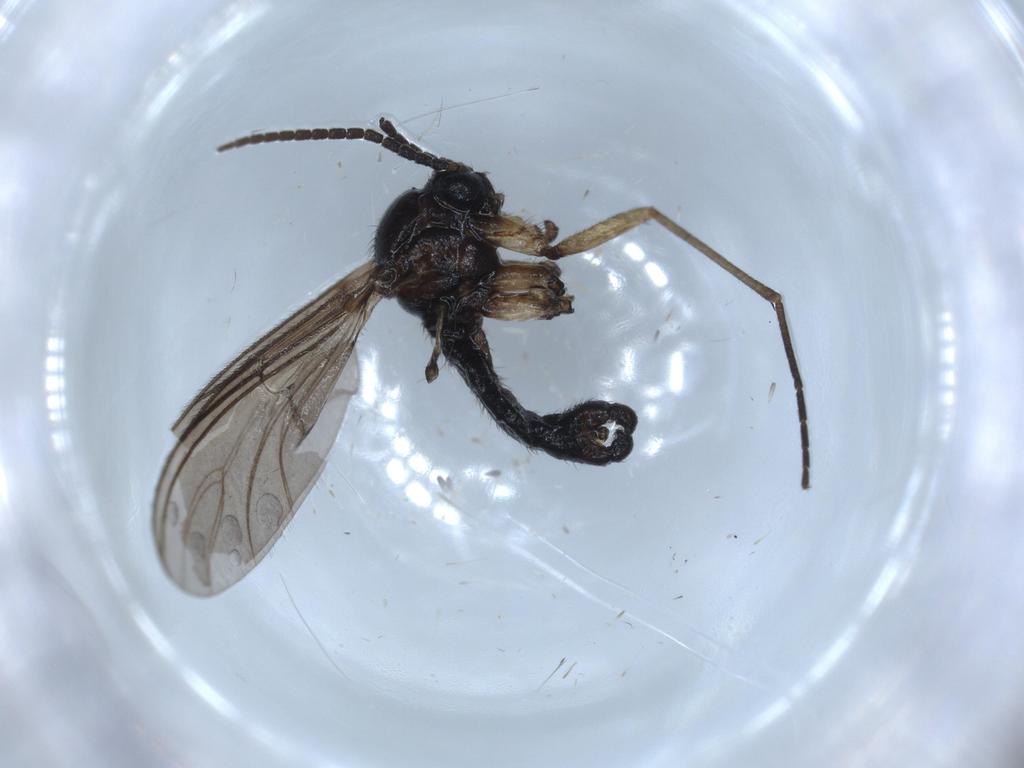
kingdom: Animalia
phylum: Arthropoda
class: Insecta
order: Diptera
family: Sciaridae
